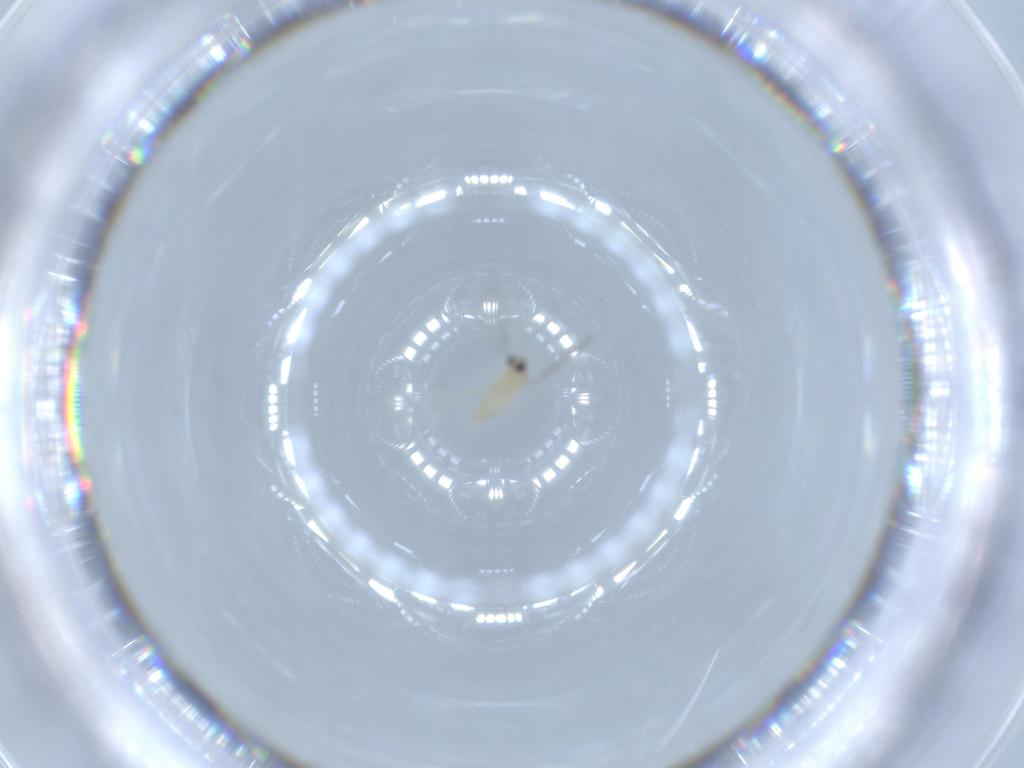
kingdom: Animalia
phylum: Arthropoda
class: Insecta
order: Diptera
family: Cecidomyiidae
